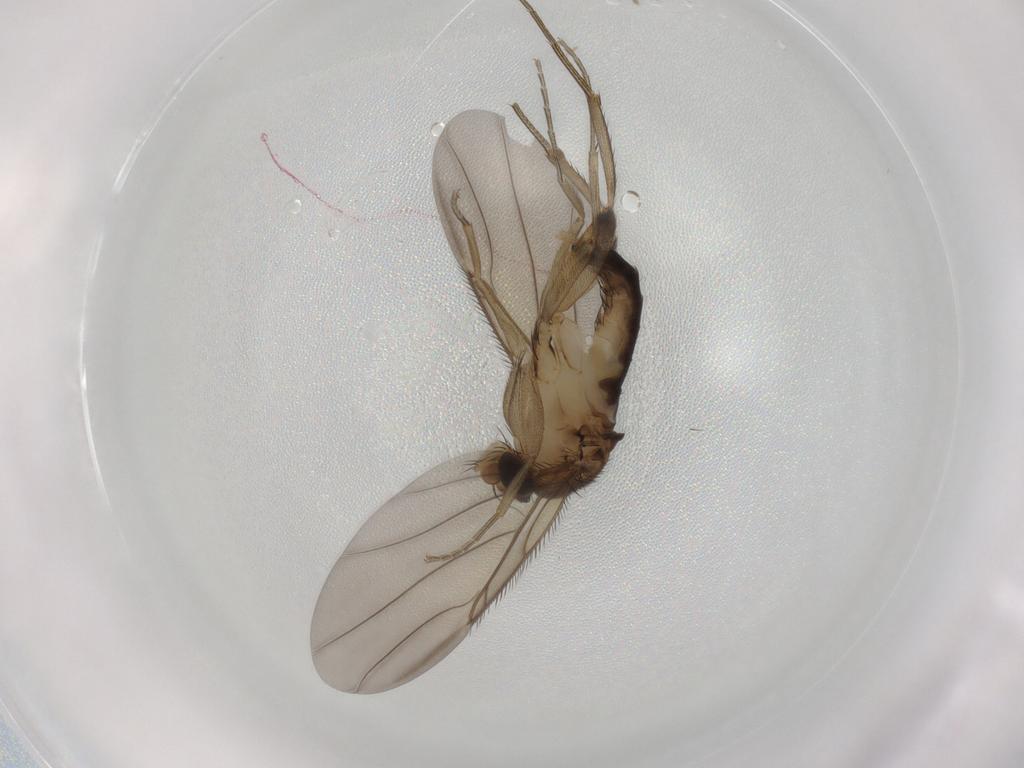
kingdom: Animalia
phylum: Arthropoda
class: Insecta
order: Diptera
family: Phoridae
